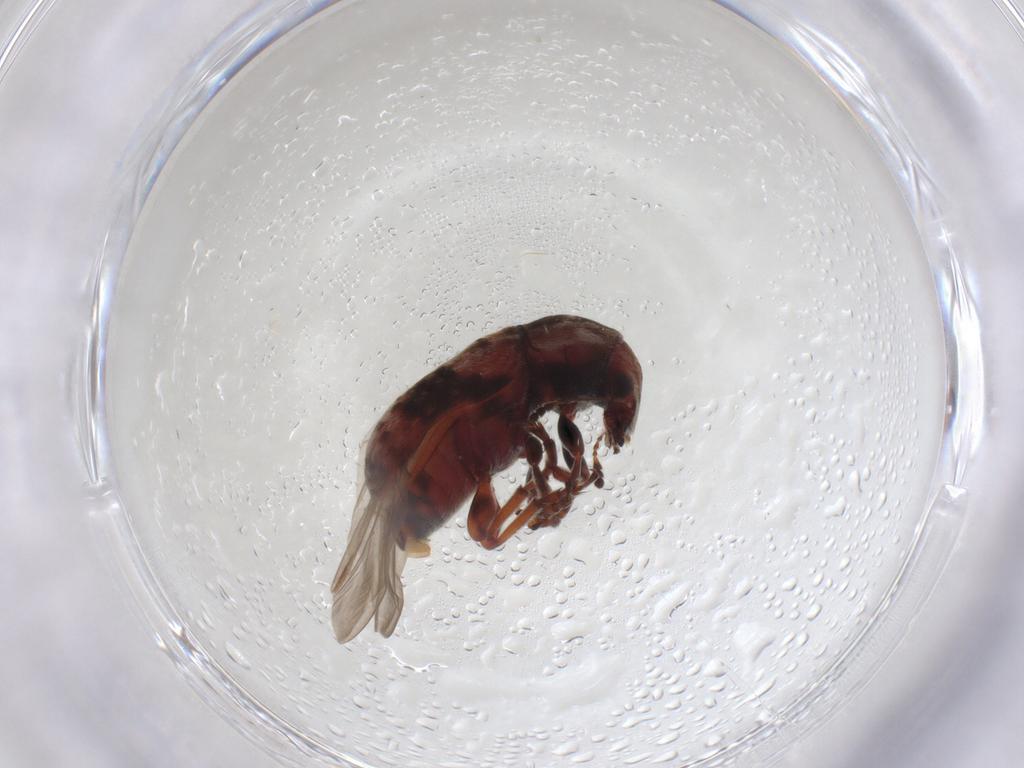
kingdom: Animalia
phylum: Arthropoda
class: Insecta
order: Coleoptera
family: Anthribidae
